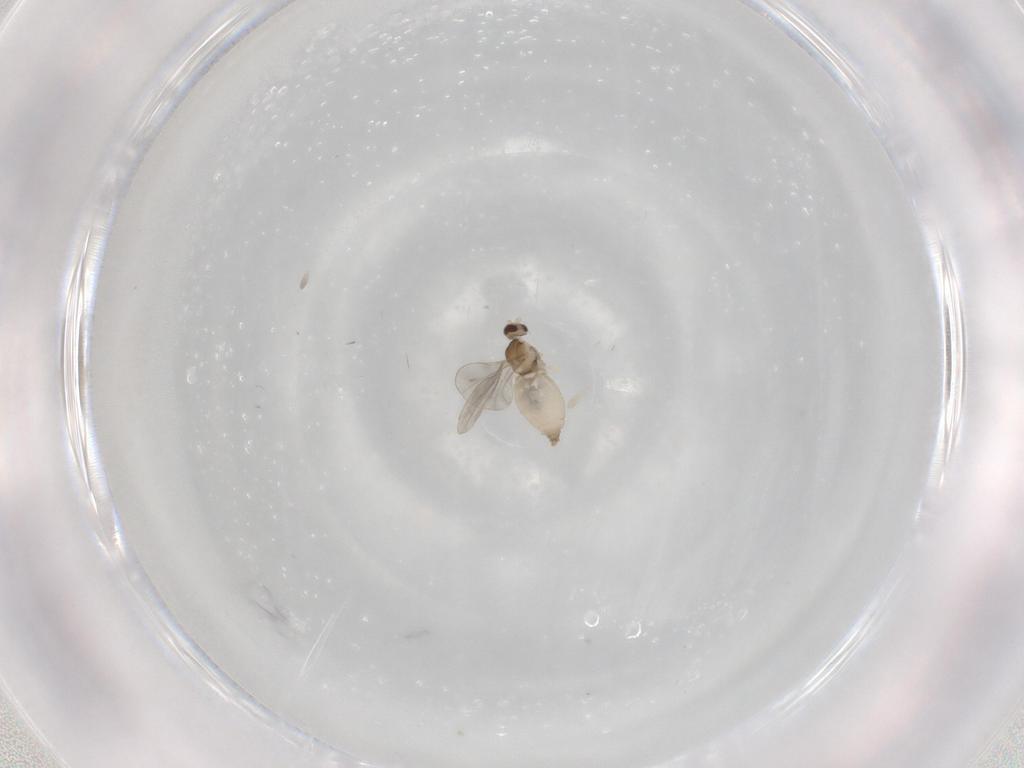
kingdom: Animalia
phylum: Arthropoda
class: Insecta
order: Diptera
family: Cecidomyiidae
